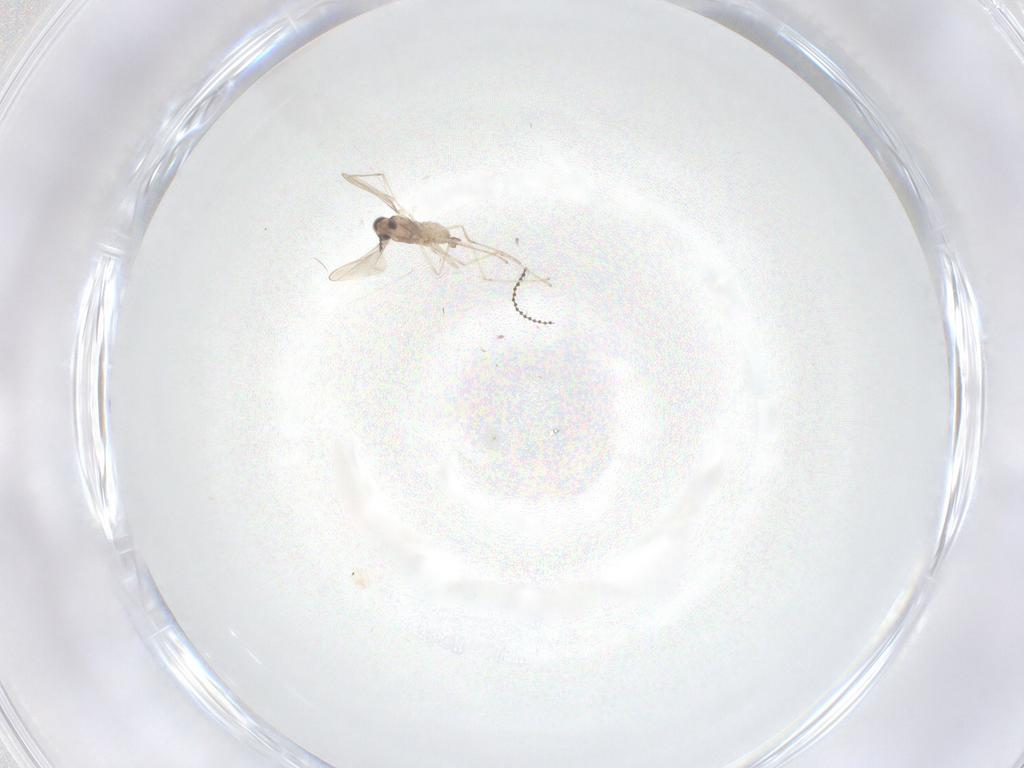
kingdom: Animalia
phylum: Arthropoda
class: Insecta
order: Diptera
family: Cecidomyiidae
